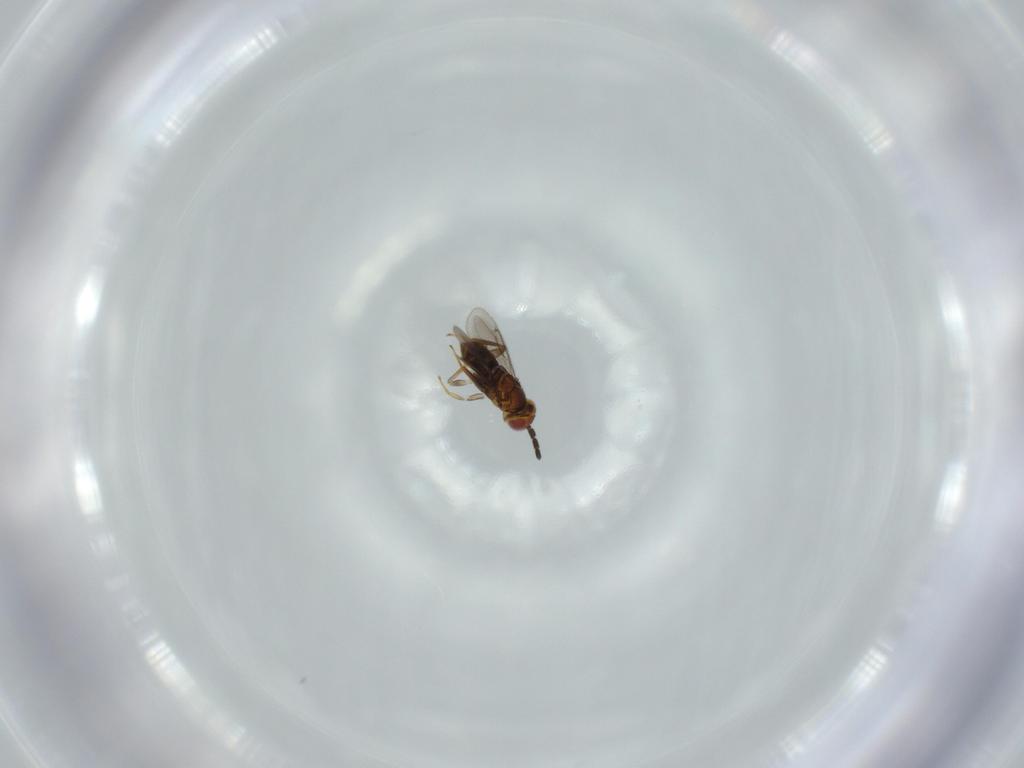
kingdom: Animalia
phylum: Arthropoda
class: Insecta
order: Hymenoptera
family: Aphelinidae
